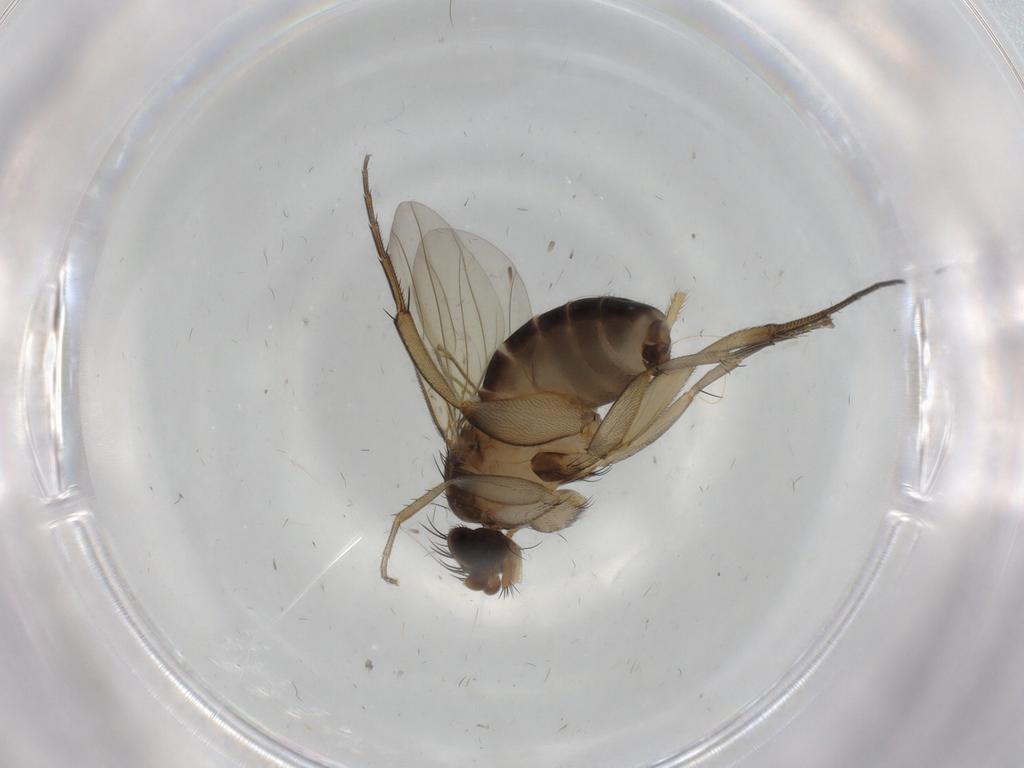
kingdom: Animalia
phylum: Arthropoda
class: Insecta
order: Diptera
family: Phoridae
